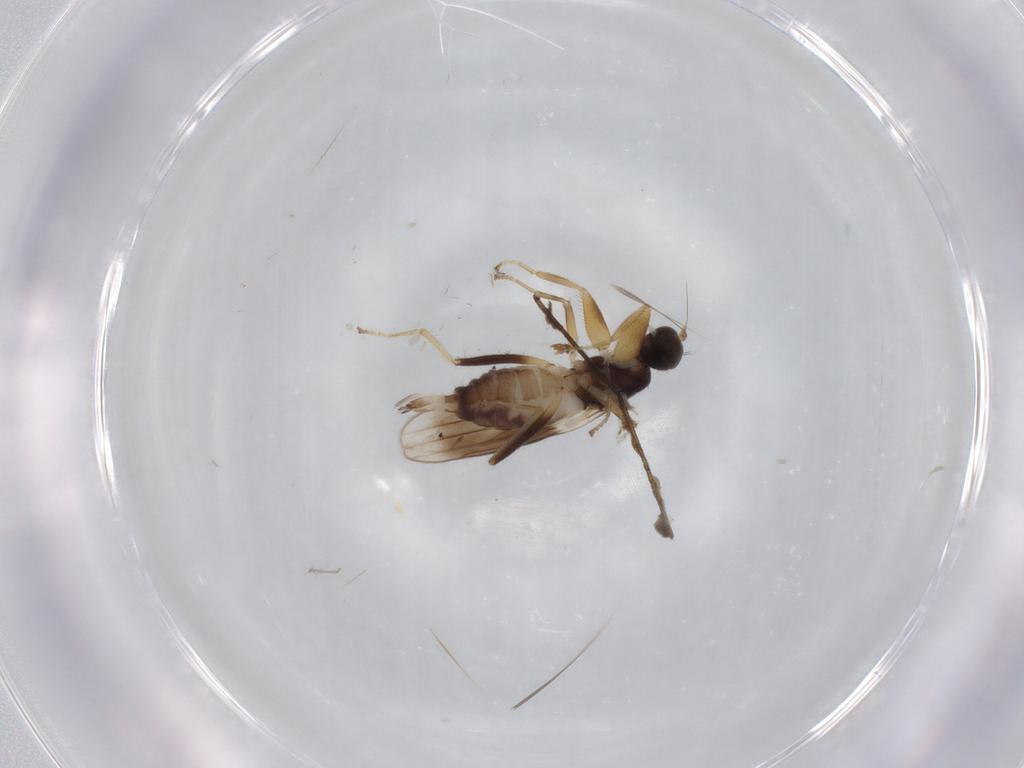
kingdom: Animalia
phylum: Arthropoda
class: Insecta
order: Diptera
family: Hybotidae
